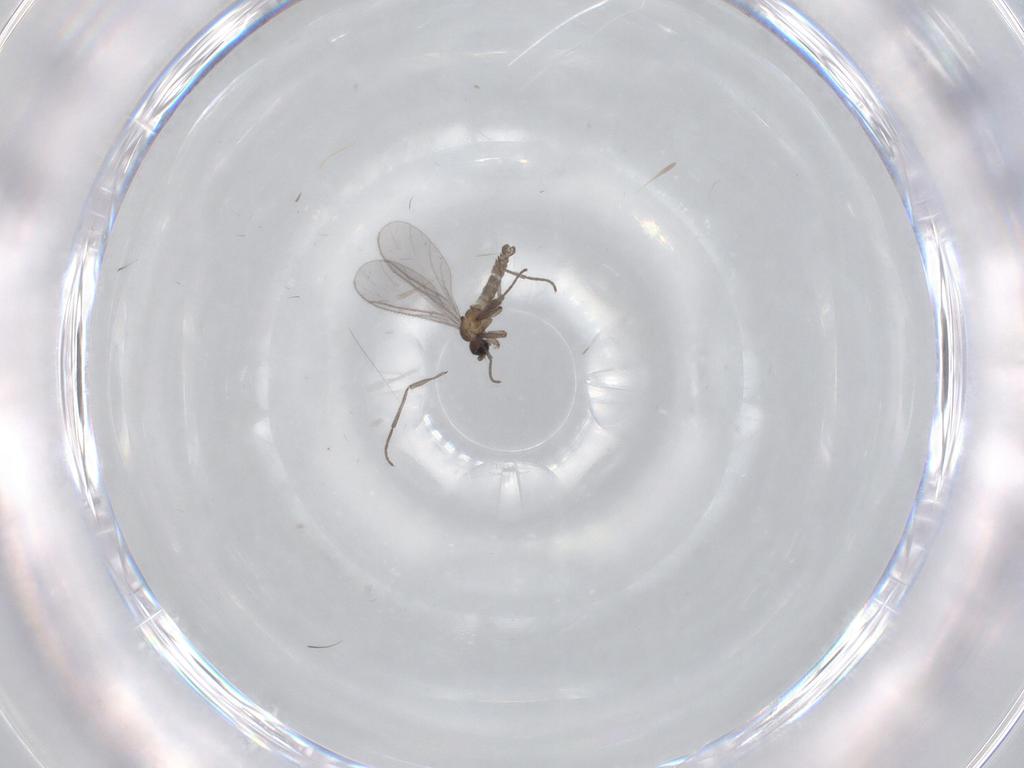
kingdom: Animalia
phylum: Arthropoda
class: Insecta
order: Diptera
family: Sciaridae
